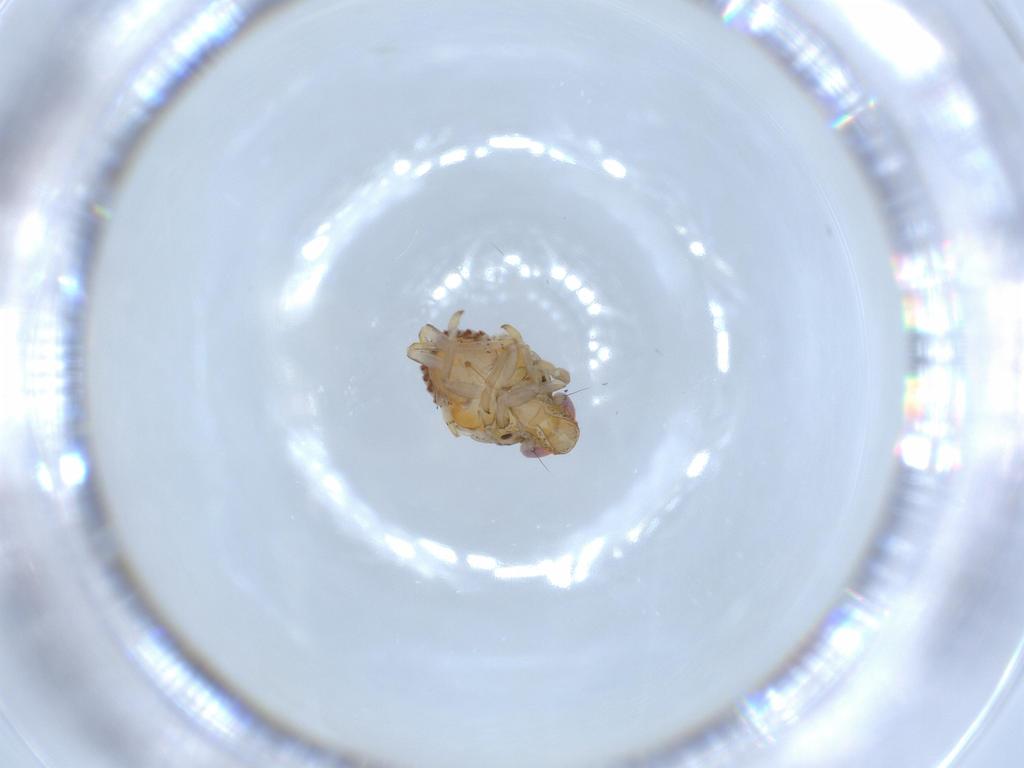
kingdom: Animalia
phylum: Arthropoda
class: Insecta
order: Hemiptera
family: Issidae
